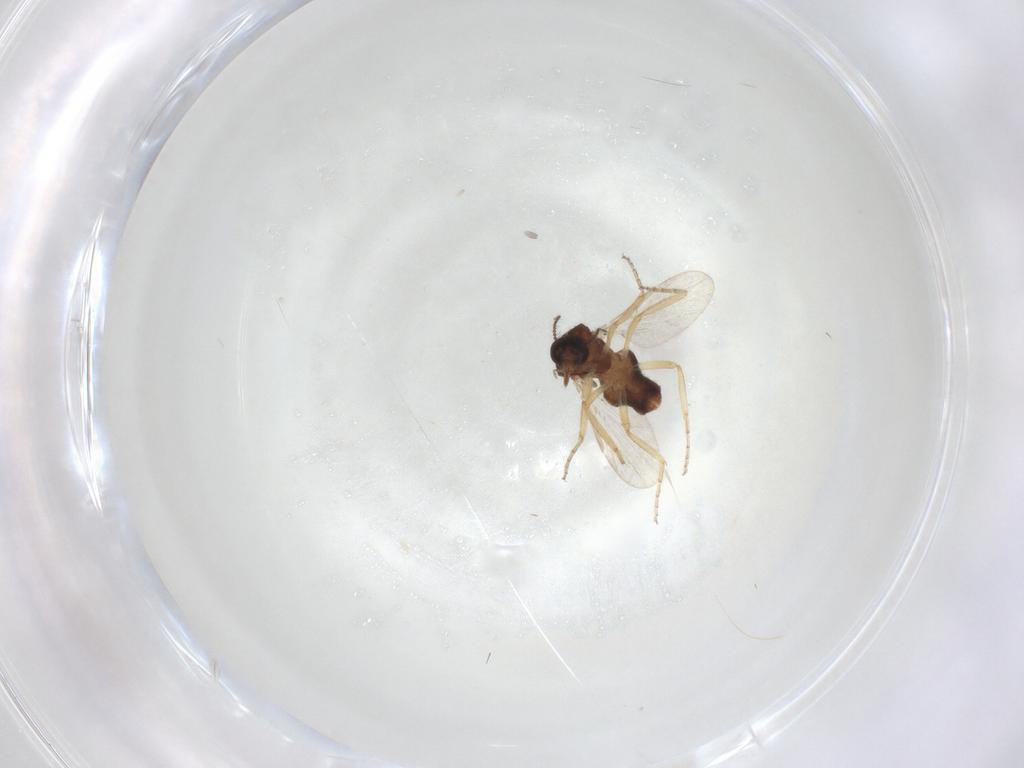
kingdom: Animalia
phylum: Arthropoda
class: Insecta
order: Diptera
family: Ceratopogonidae
